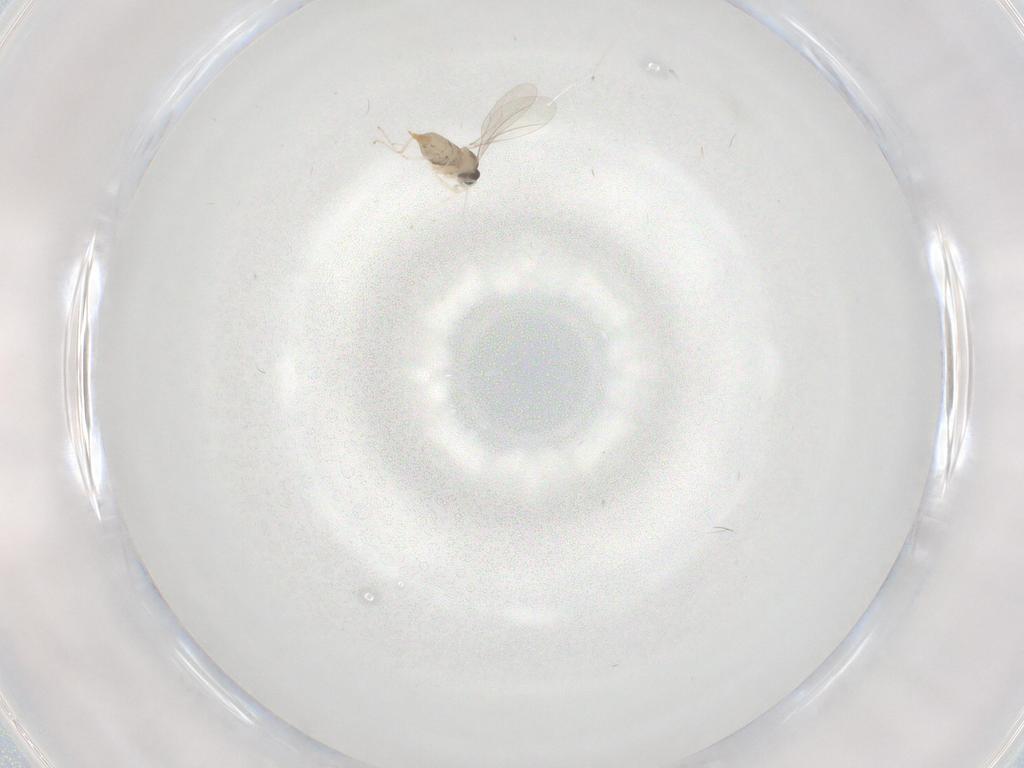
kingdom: Animalia
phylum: Arthropoda
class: Insecta
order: Diptera
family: Cecidomyiidae
